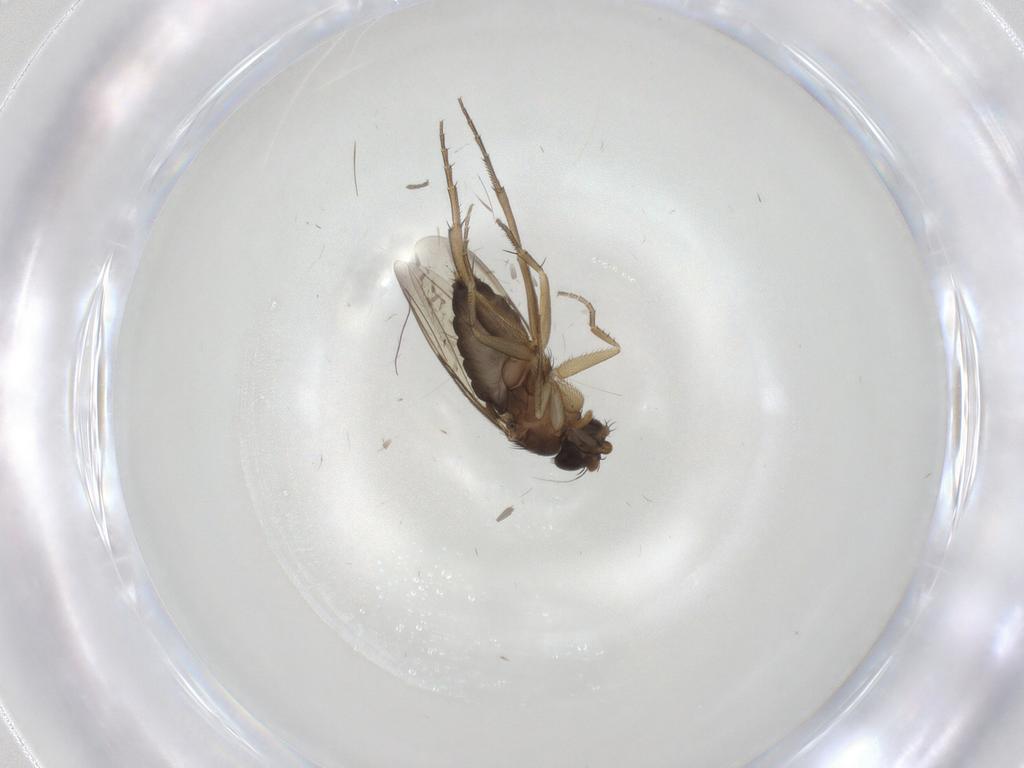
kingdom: Animalia
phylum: Arthropoda
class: Insecta
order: Diptera
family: Phoridae
